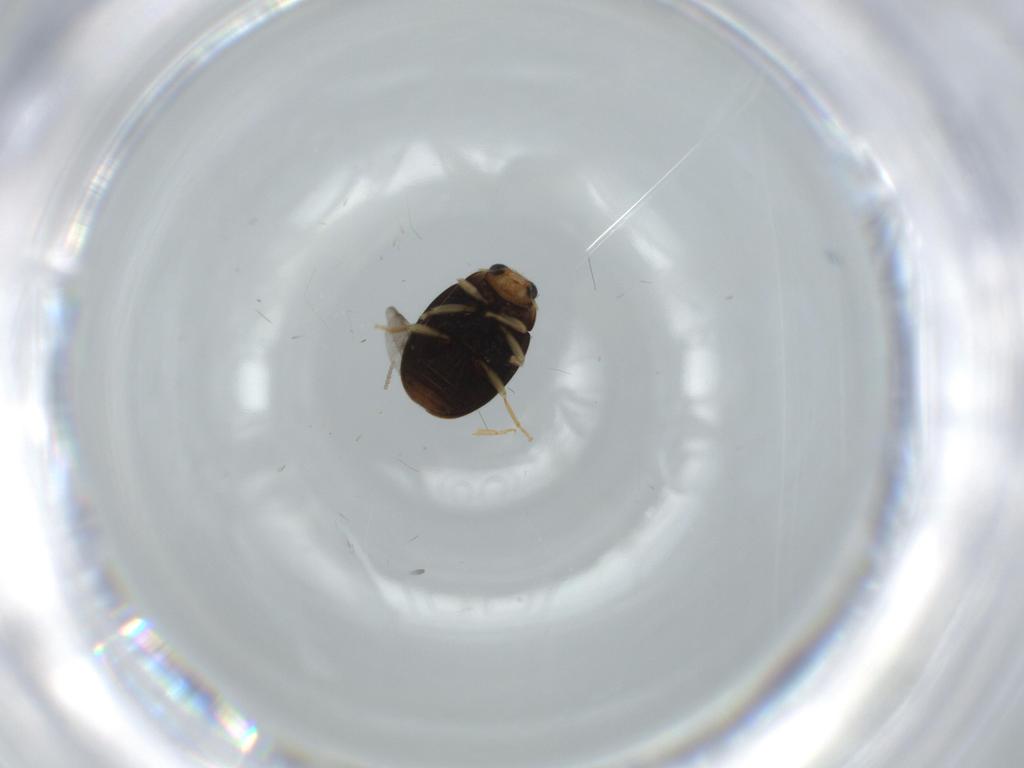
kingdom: Animalia
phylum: Arthropoda
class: Insecta
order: Coleoptera
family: Coccinellidae
